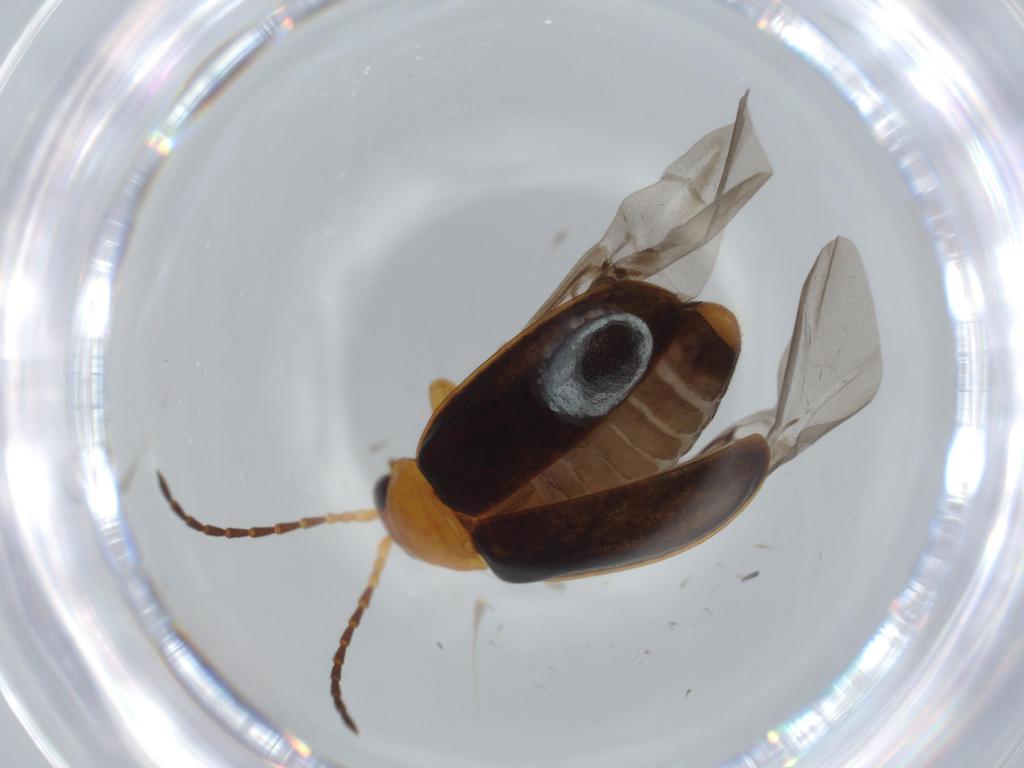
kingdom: Animalia
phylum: Arthropoda
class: Insecta
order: Coleoptera
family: Chrysomelidae
